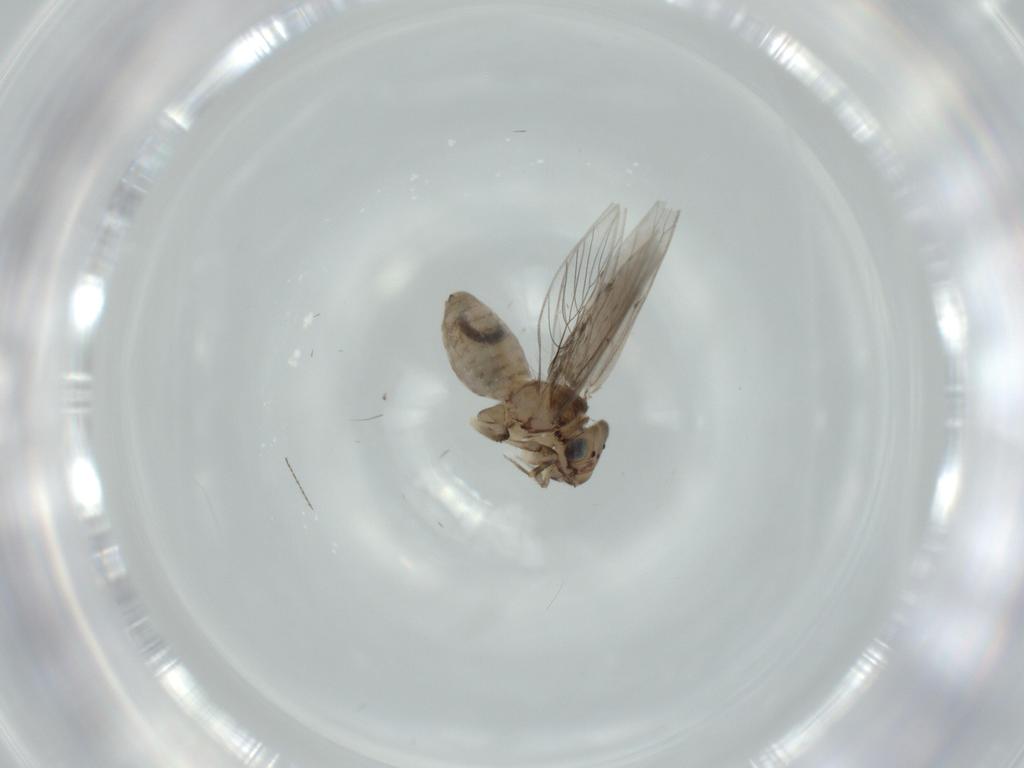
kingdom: Animalia
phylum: Arthropoda
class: Insecta
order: Psocodea
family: Lepidopsocidae
